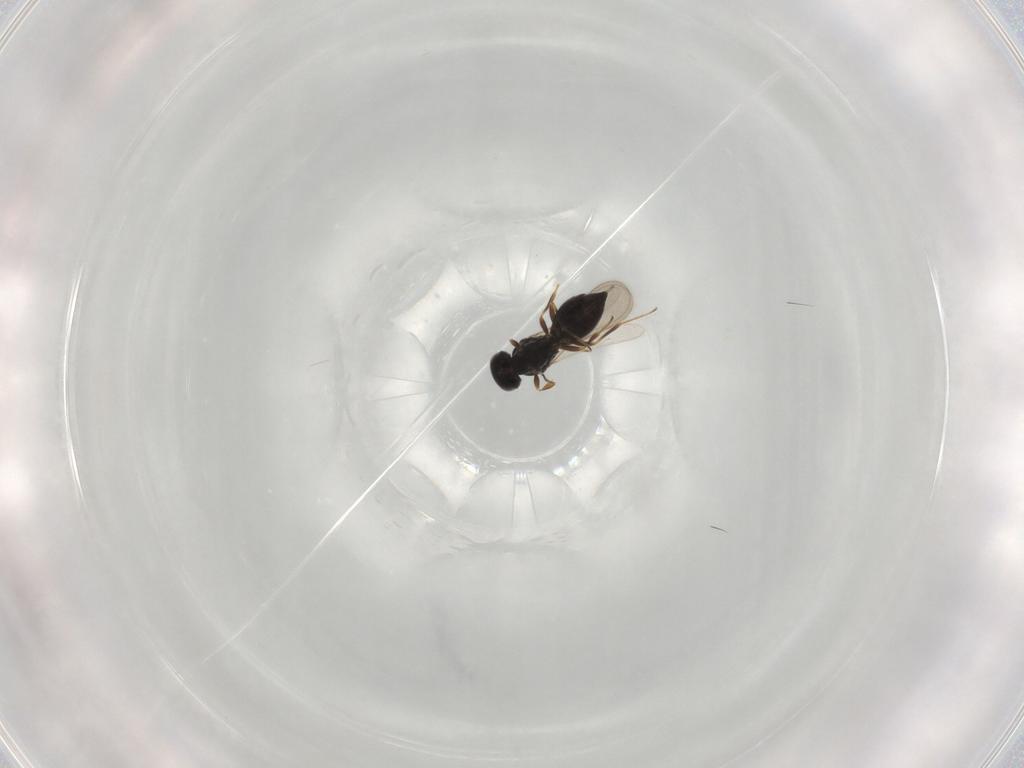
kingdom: Animalia
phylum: Arthropoda
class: Insecta
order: Hymenoptera
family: Scelionidae
